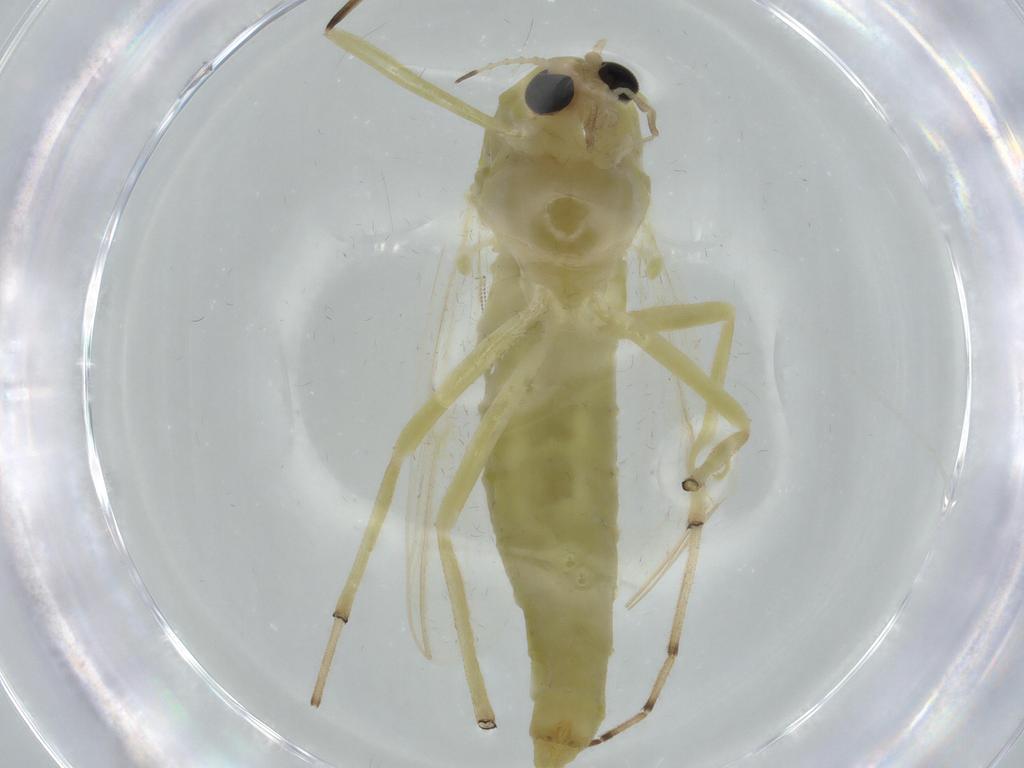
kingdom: Animalia
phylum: Arthropoda
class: Insecta
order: Diptera
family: Chironomidae
